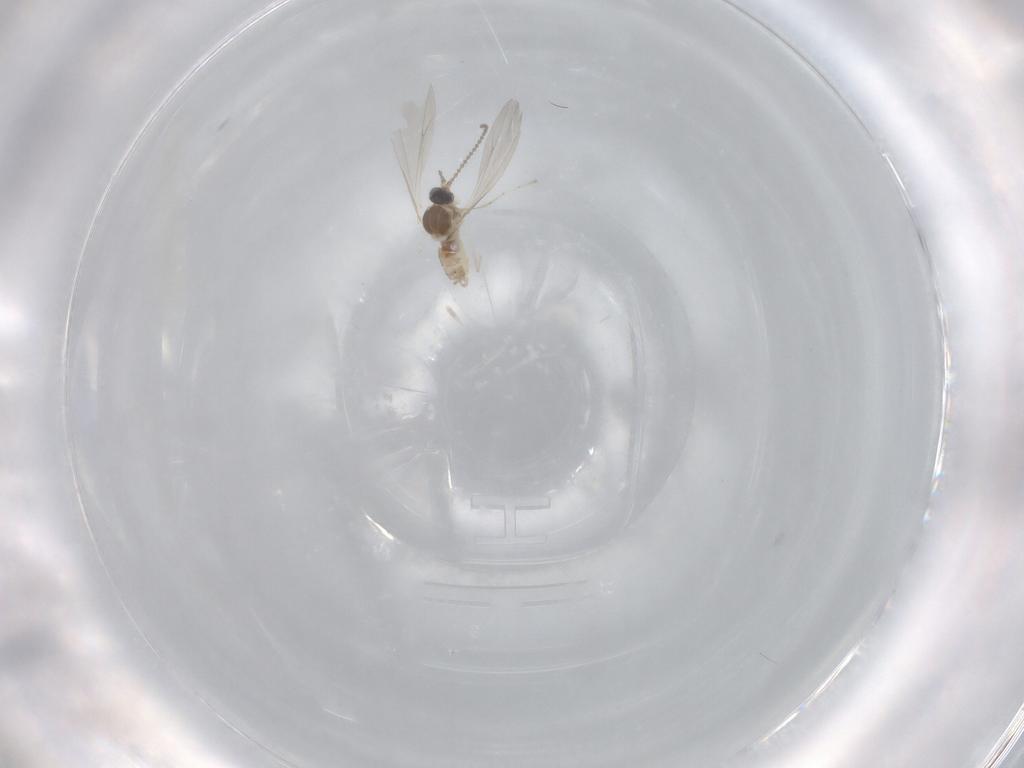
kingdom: Animalia
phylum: Arthropoda
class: Insecta
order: Diptera
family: Cecidomyiidae
